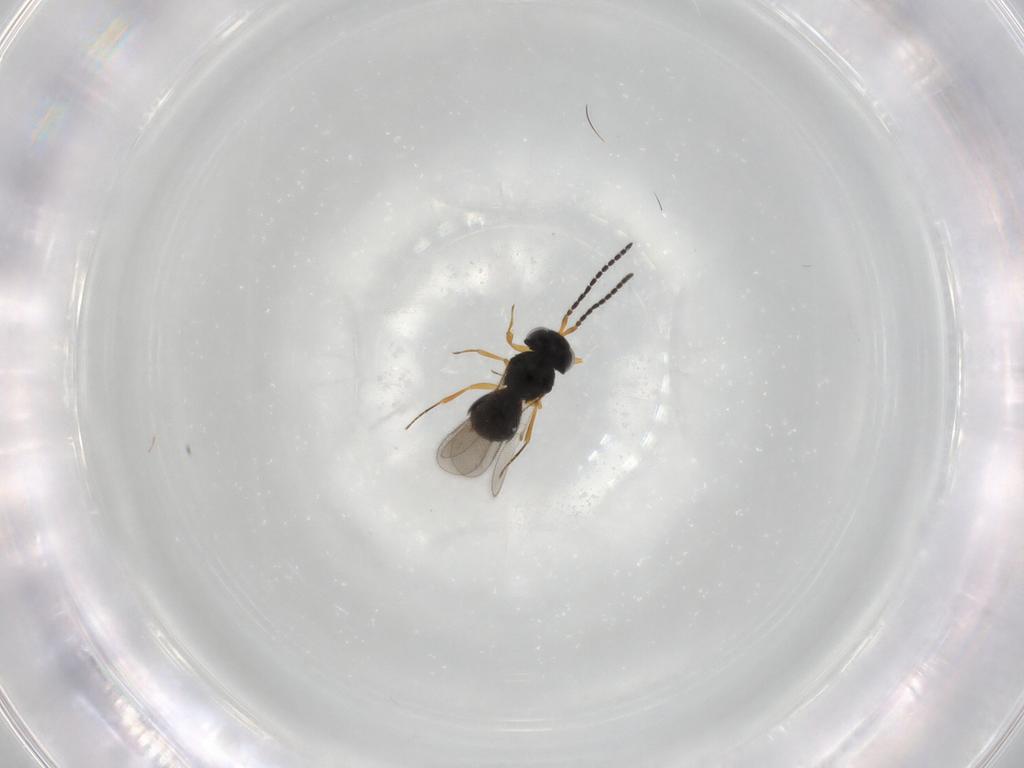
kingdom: Animalia
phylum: Arthropoda
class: Insecta
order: Hymenoptera
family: Scelionidae
